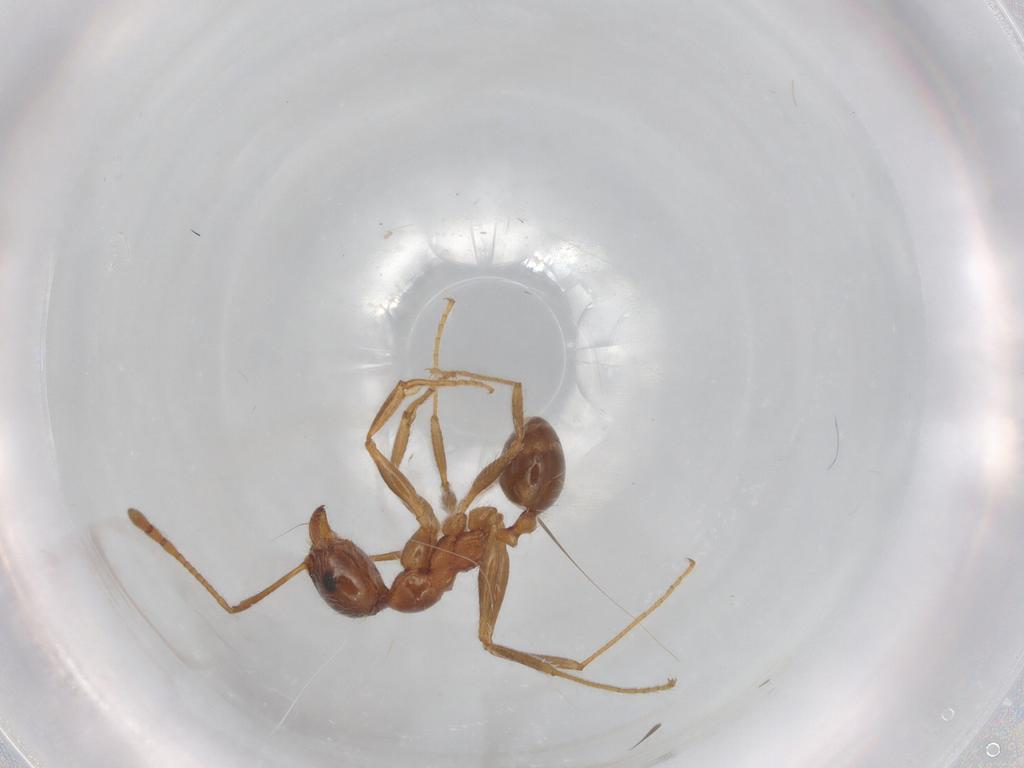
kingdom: Animalia
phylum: Arthropoda
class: Insecta
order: Hymenoptera
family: Formicidae
